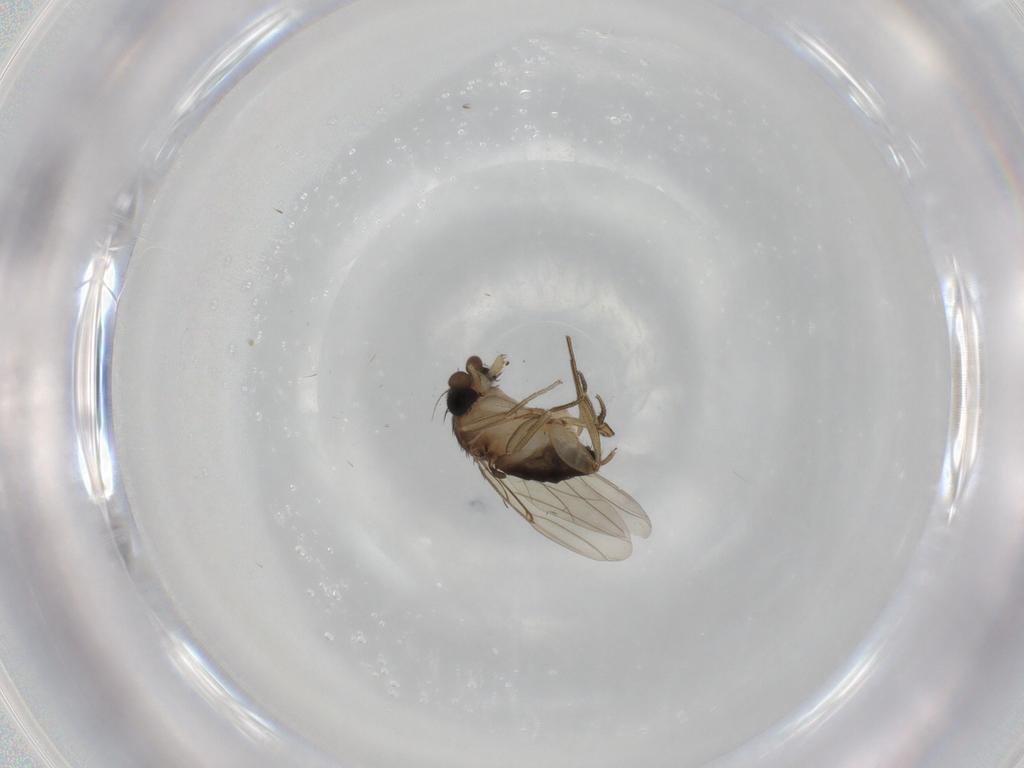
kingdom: Animalia
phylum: Arthropoda
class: Insecta
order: Diptera
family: Phoridae
